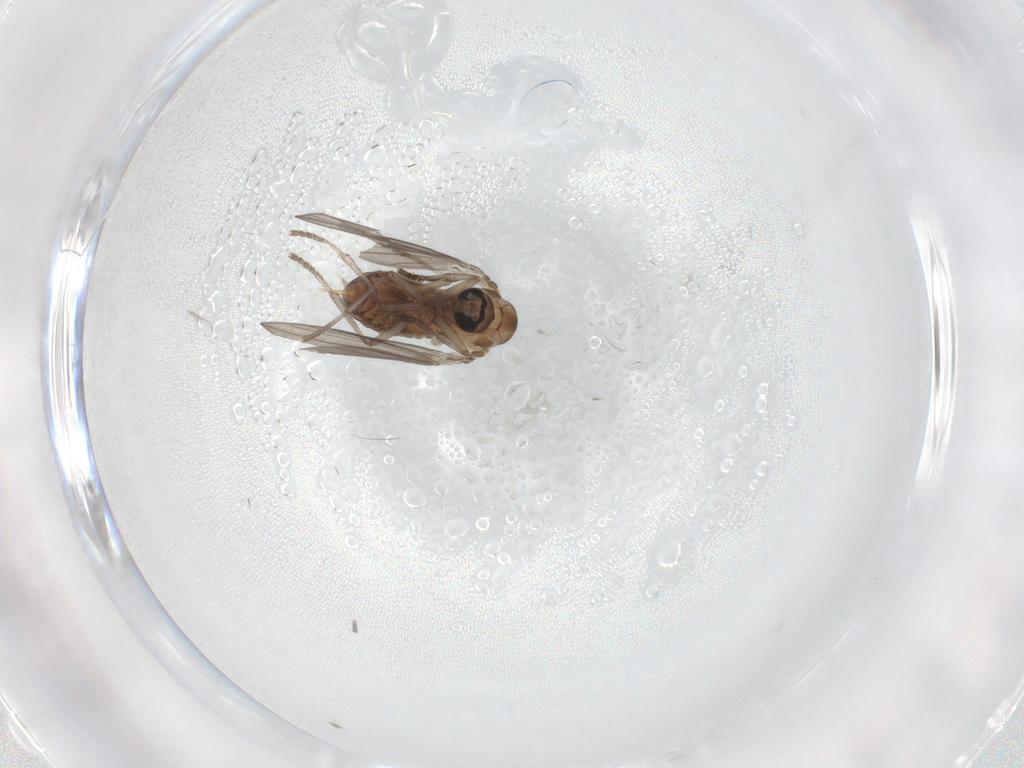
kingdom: Animalia
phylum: Arthropoda
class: Insecta
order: Diptera
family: Psychodidae
